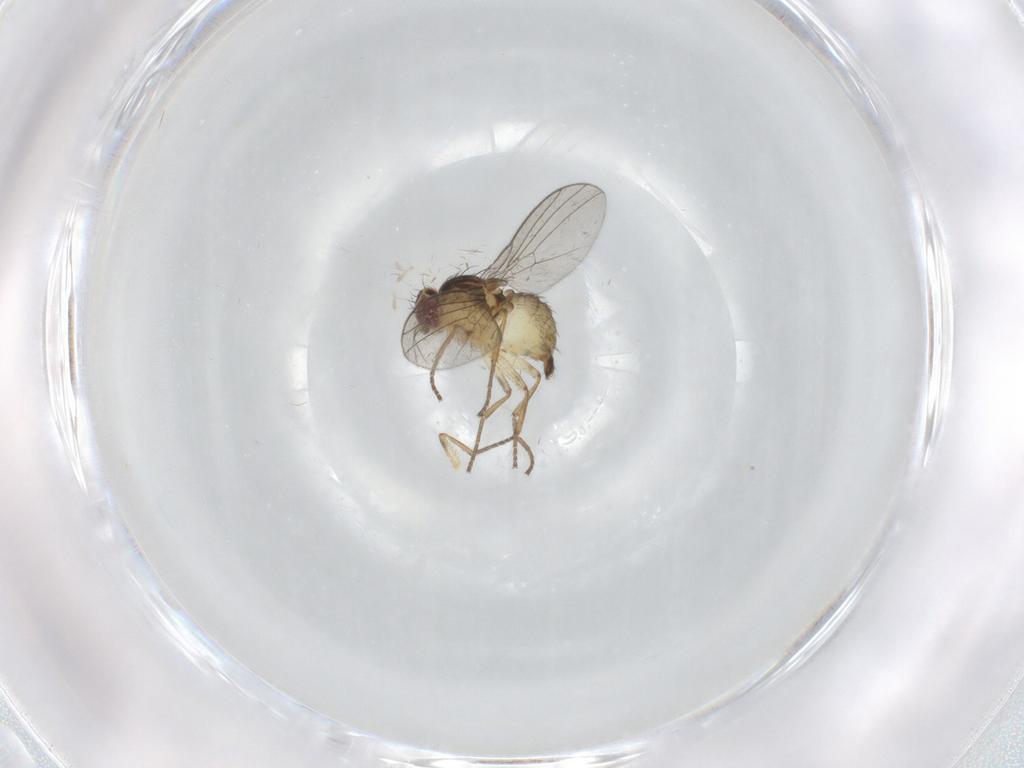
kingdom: Animalia
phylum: Arthropoda
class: Insecta
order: Diptera
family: Agromyzidae
